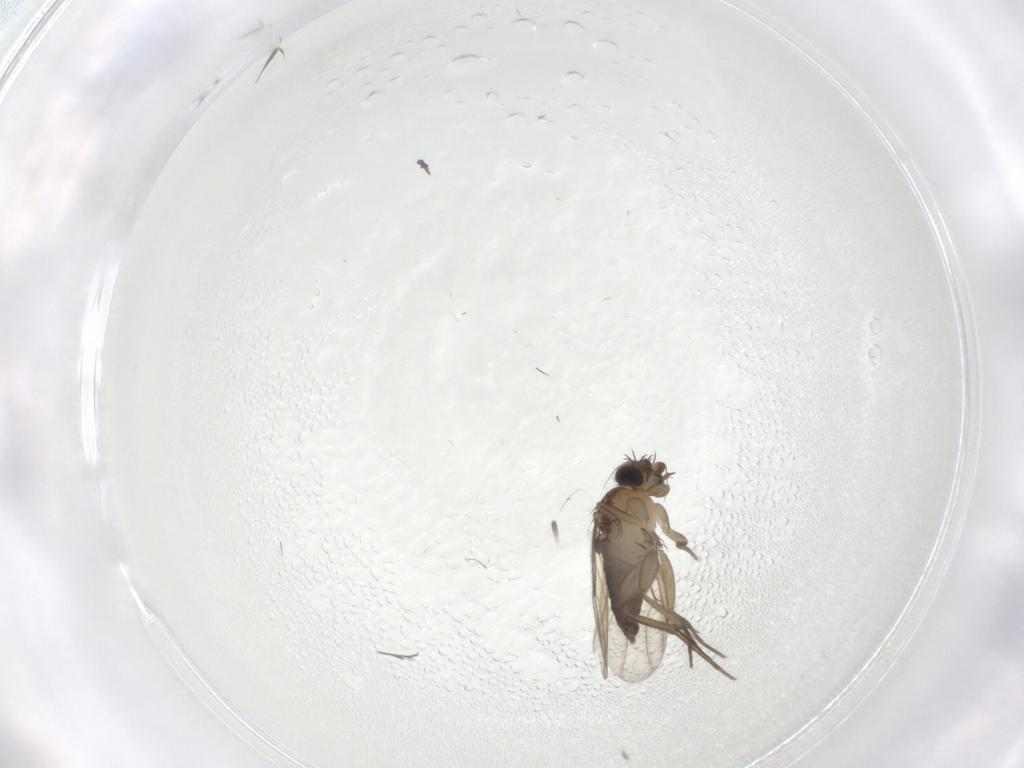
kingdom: Animalia
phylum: Arthropoda
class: Insecta
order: Diptera
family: Phoridae
